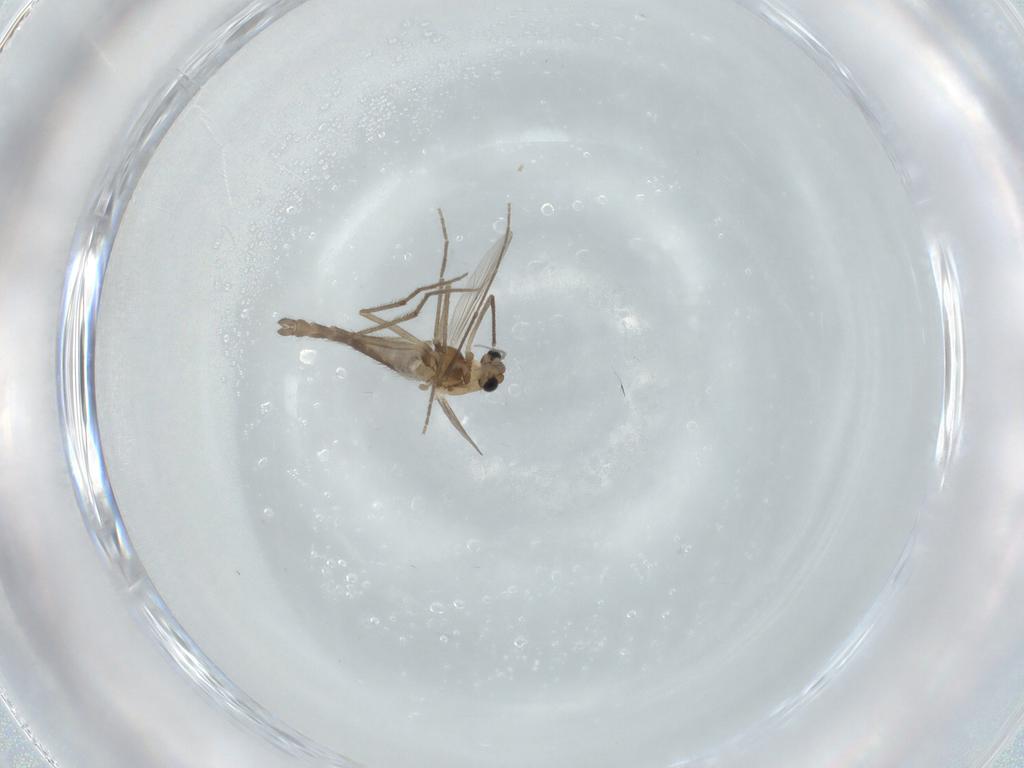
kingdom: Animalia
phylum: Arthropoda
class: Insecta
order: Diptera
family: Chironomidae
